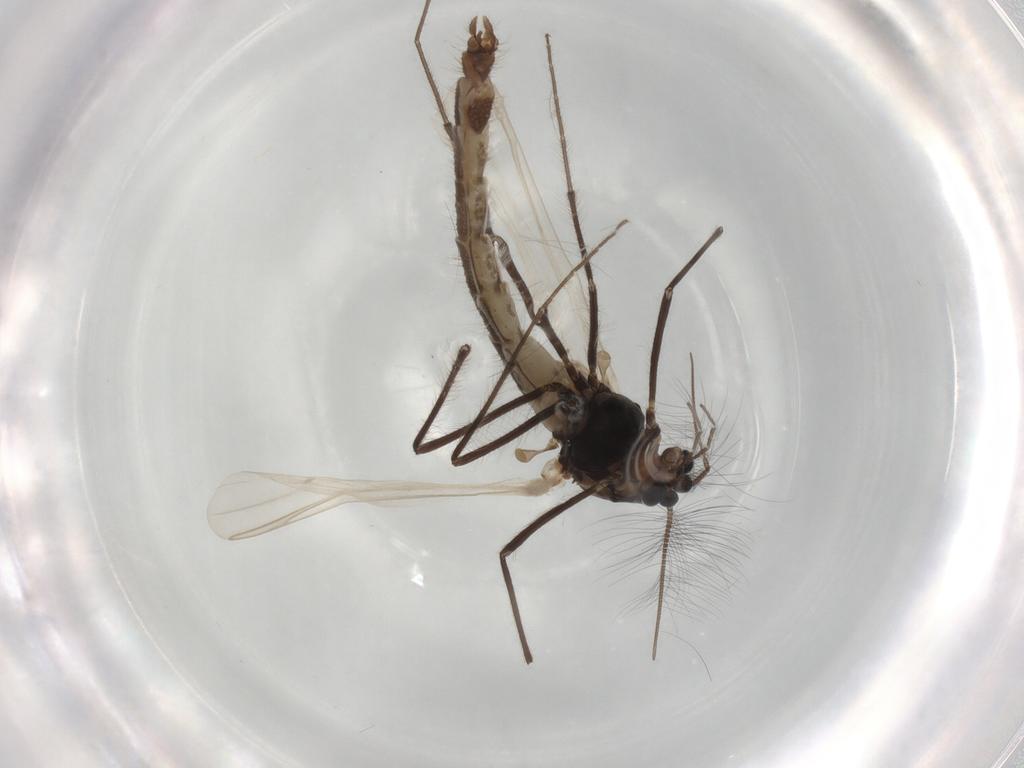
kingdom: Animalia
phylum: Arthropoda
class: Insecta
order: Diptera
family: Chironomidae
